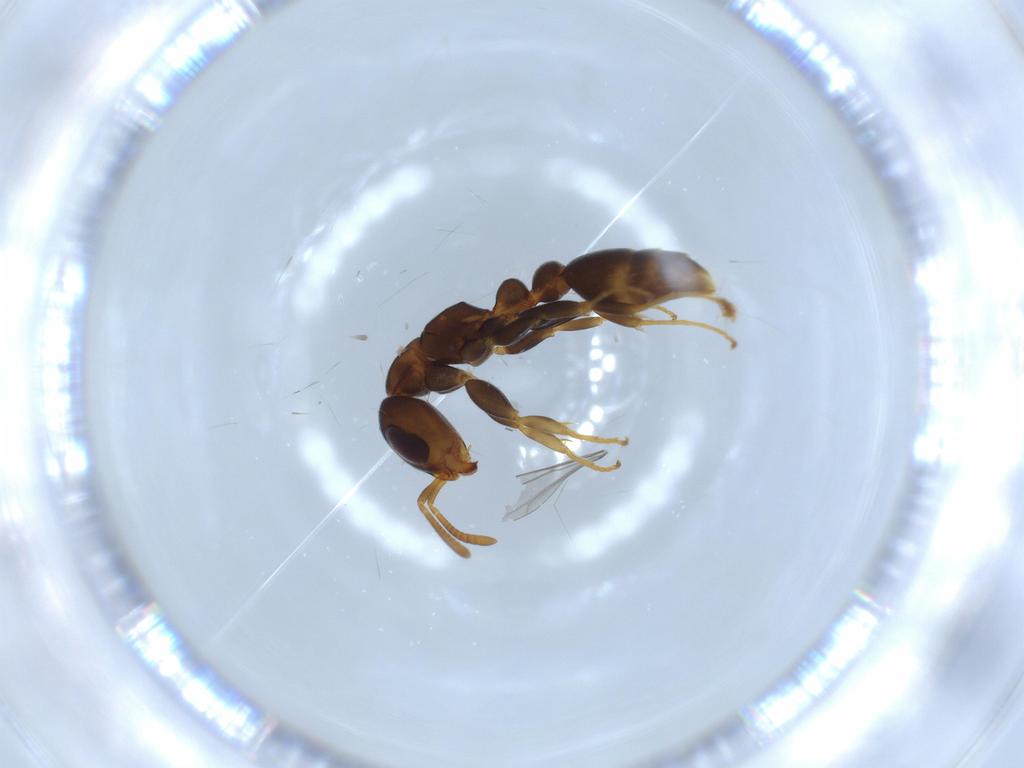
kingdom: Animalia
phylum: Arthropoda
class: Insecta
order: Hymenoptera
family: Formicidae
